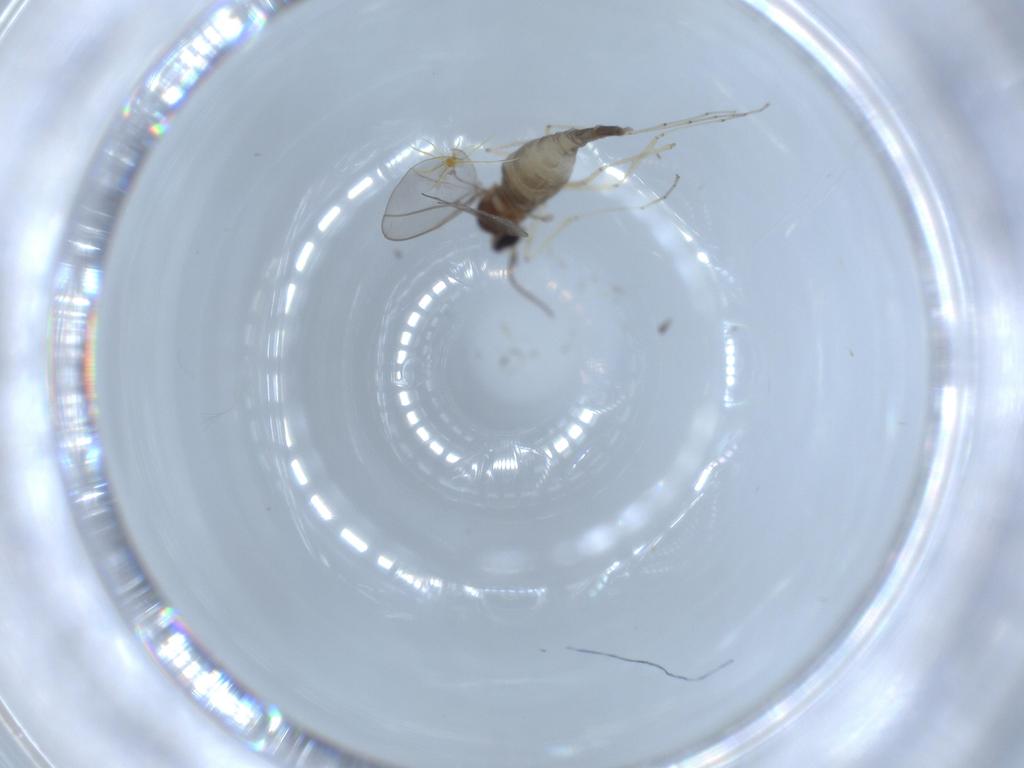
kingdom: Animalia
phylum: Arthropoda
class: Insecta
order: Diptera
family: Cecidomyiidae
